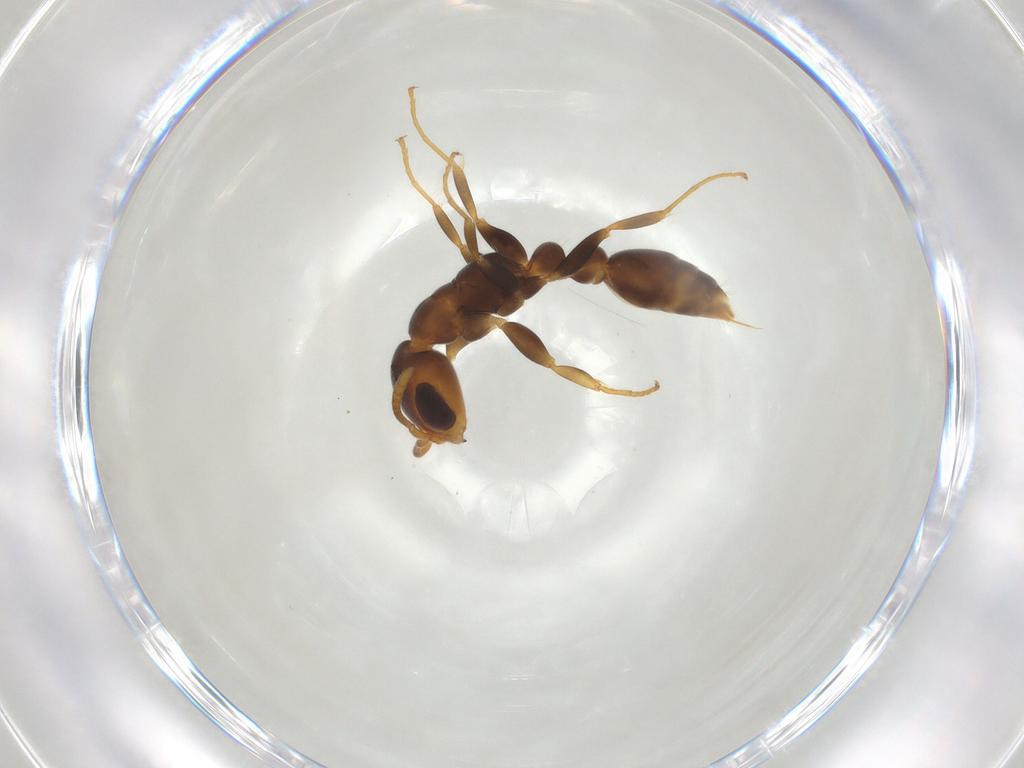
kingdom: Animalia
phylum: Arthropoda
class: Insecta
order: Hymenoptera
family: Formicidae
